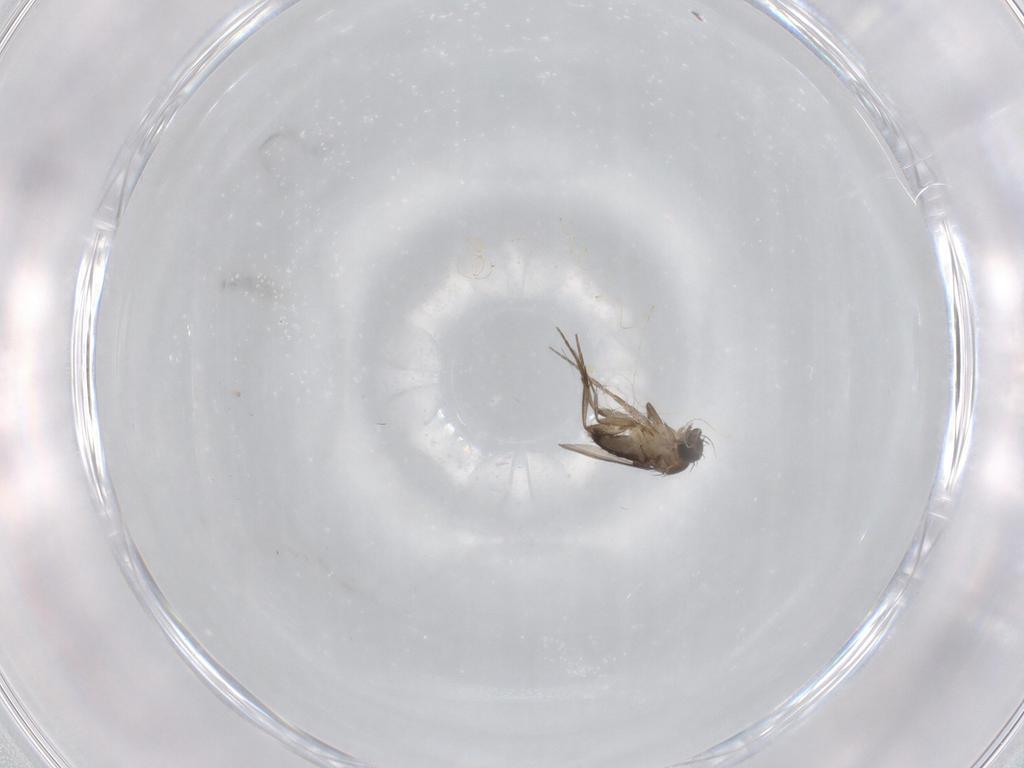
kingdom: Animalia
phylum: Arthropoda
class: Insecta
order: Diptera
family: Phoridae
